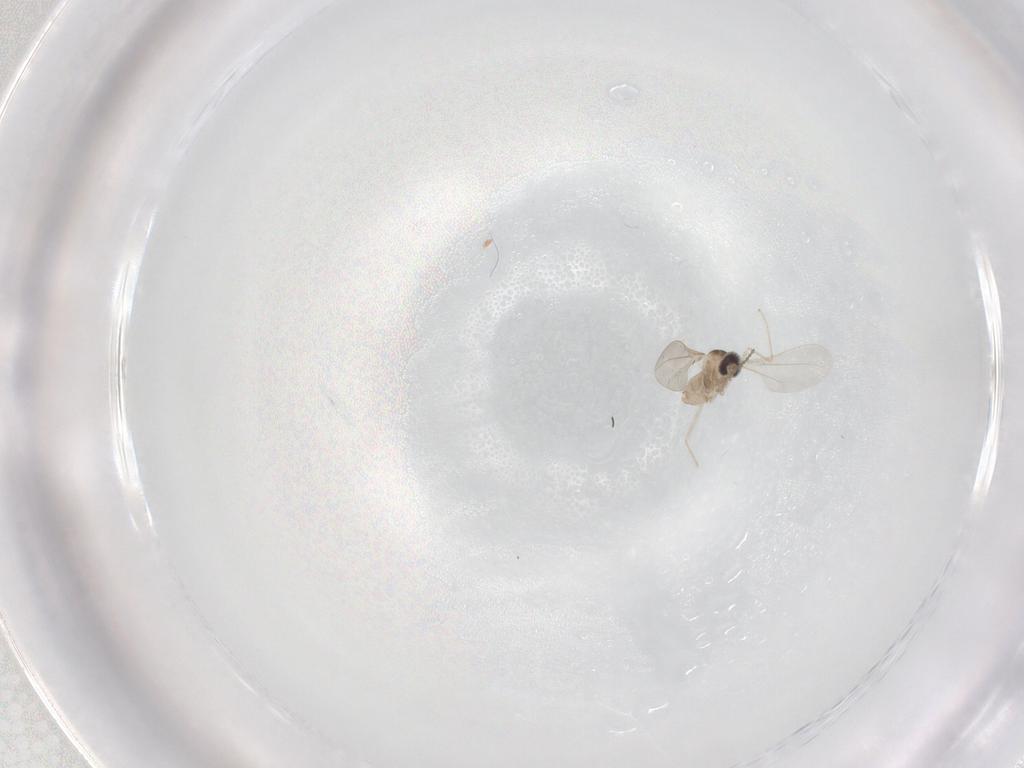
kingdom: Animalia
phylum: Arthropoda
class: Insecta
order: Diptera
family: Cecidomyiidae
